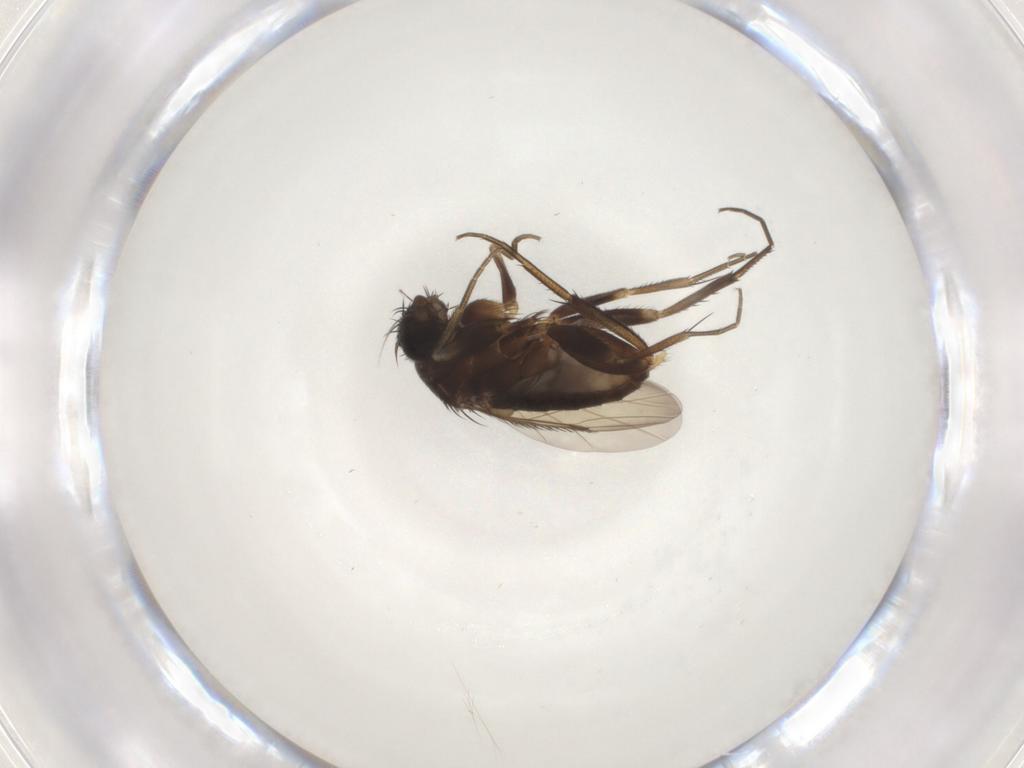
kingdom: Animalia
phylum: Arthropoda
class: Insecta
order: Diptera
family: Phoridae
